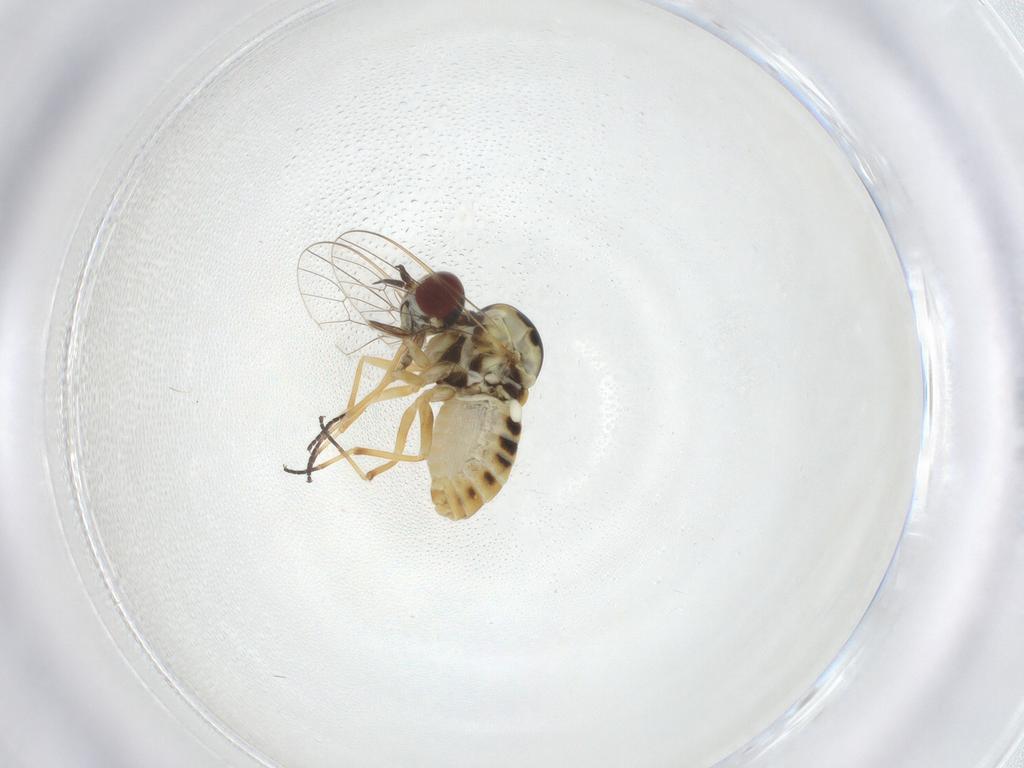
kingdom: Animalia
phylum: Arthropoda
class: Insecta
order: Diptera
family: Mythicomyiidae
